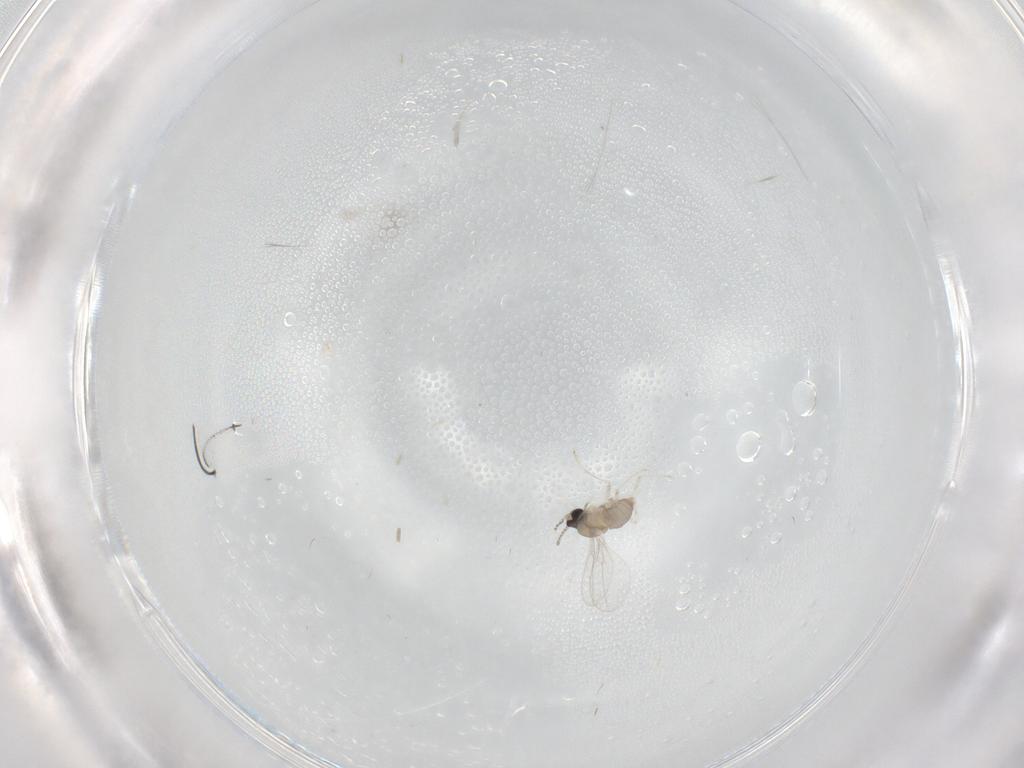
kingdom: Animalia
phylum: Arthropoda
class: Insecta
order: Diptera
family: Cecidomyiidae
